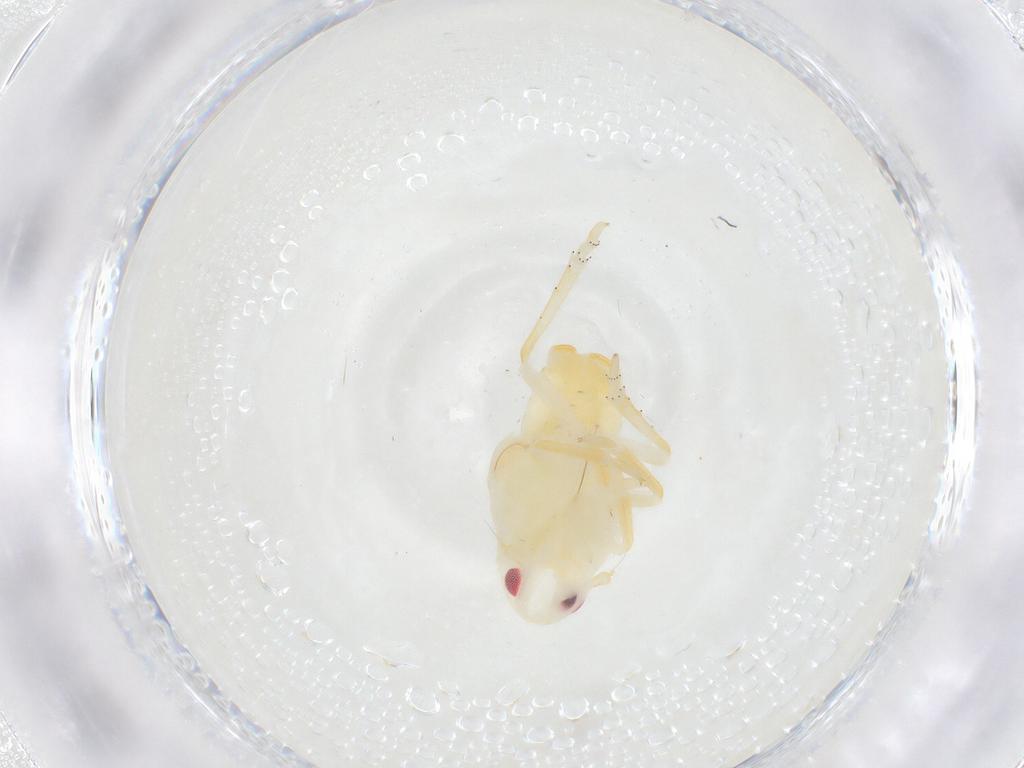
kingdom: Animalia
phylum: Arthropoda
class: Insecta
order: Hemiptera
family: Flatidae
